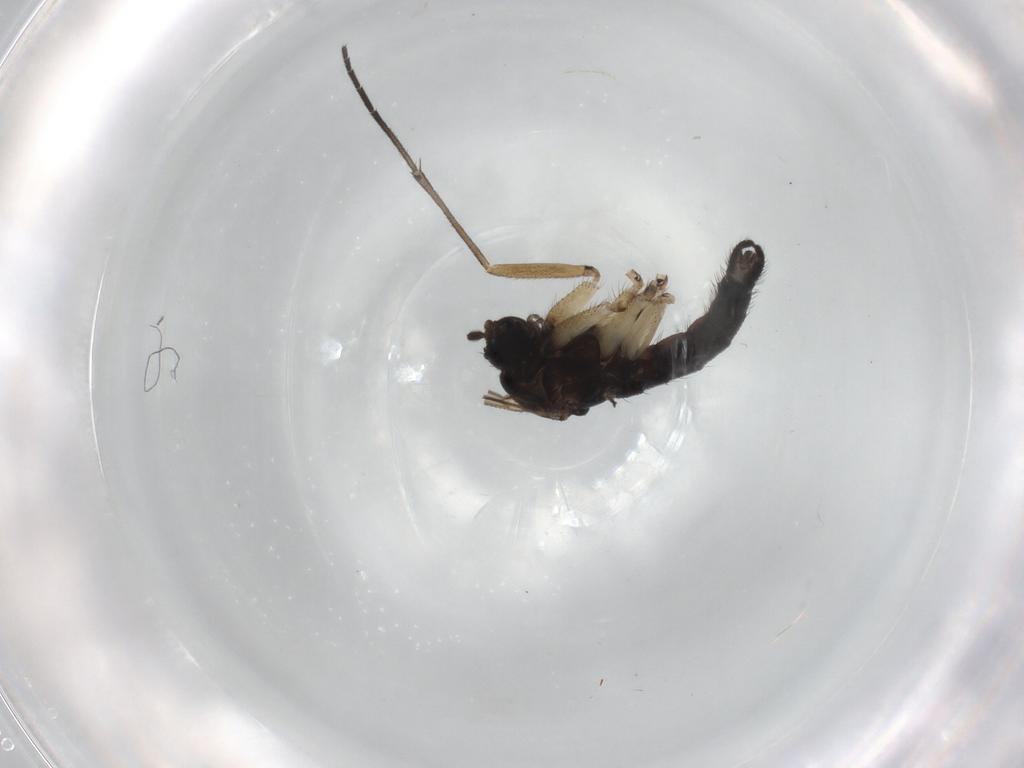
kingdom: Animalia
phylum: Arthropoda
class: Insecta
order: Diptera
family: Sciaridae
